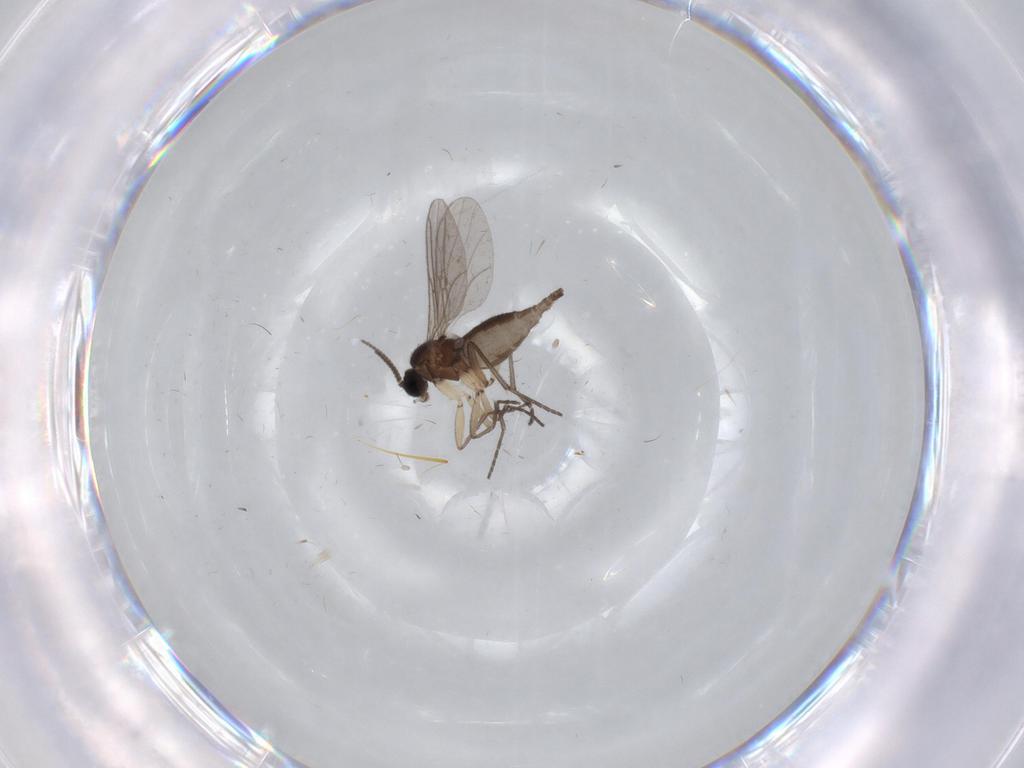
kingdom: Animalia
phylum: Arthropoda
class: Insecta
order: Diptera
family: Sciaridae
